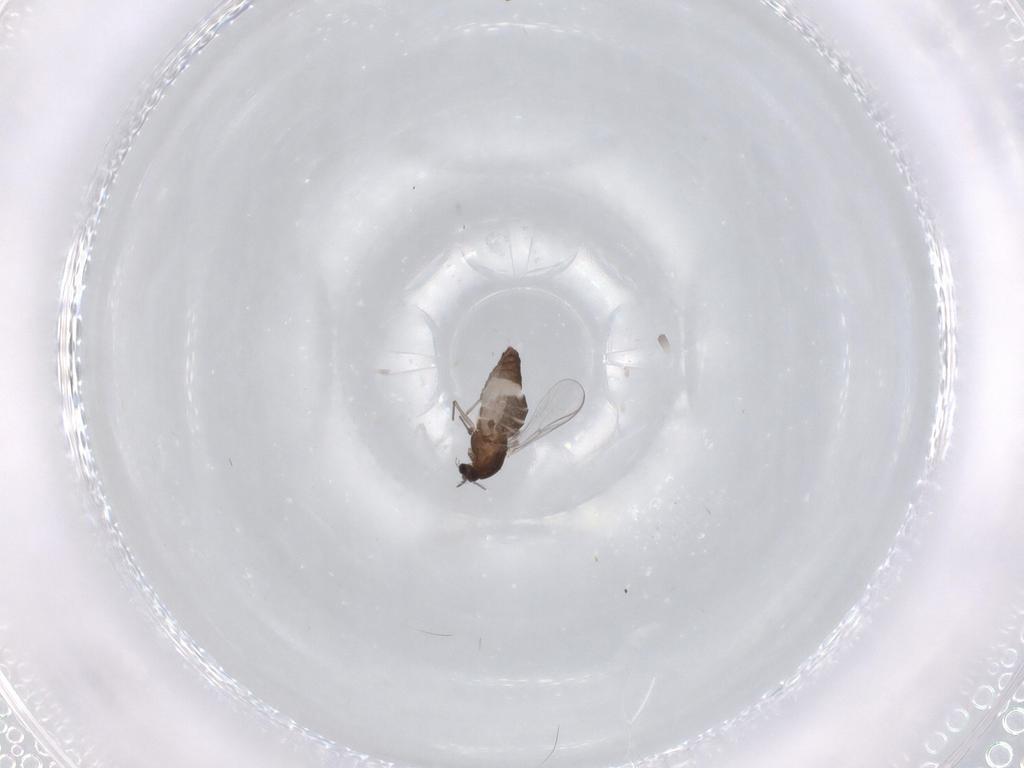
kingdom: Animalia
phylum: Arthropoda
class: Insecta
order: Diptera
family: Chironomidae
